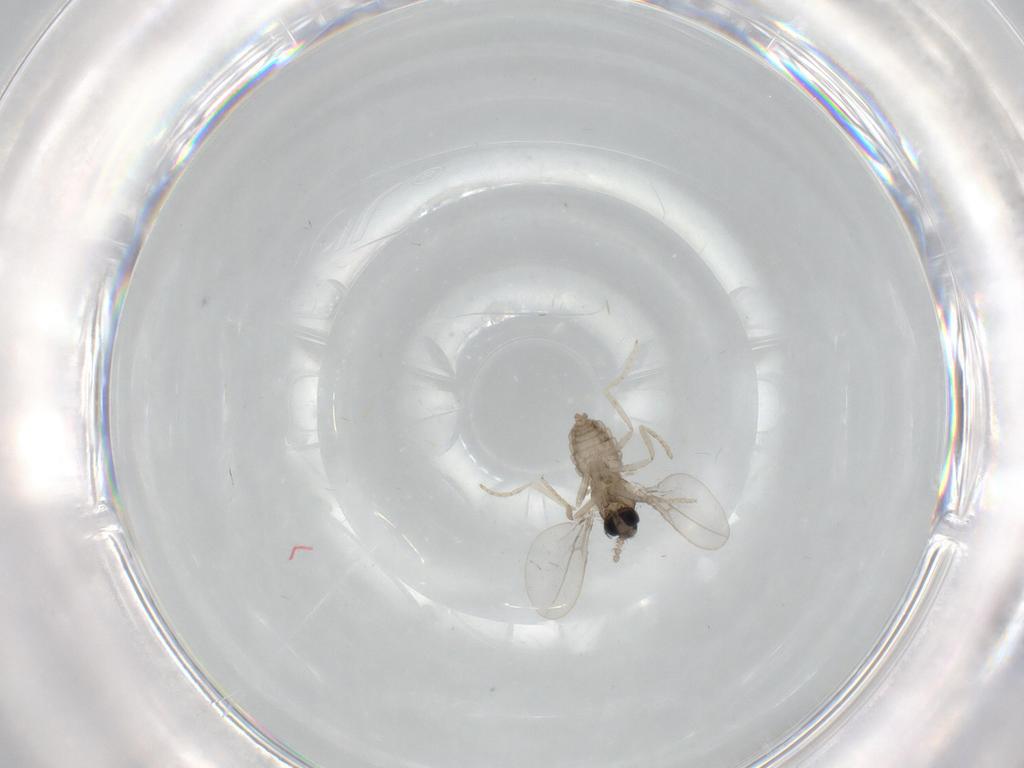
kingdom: Animalia
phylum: Arthropoda
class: Insecta
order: Diptera
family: Cecidomyiidae
